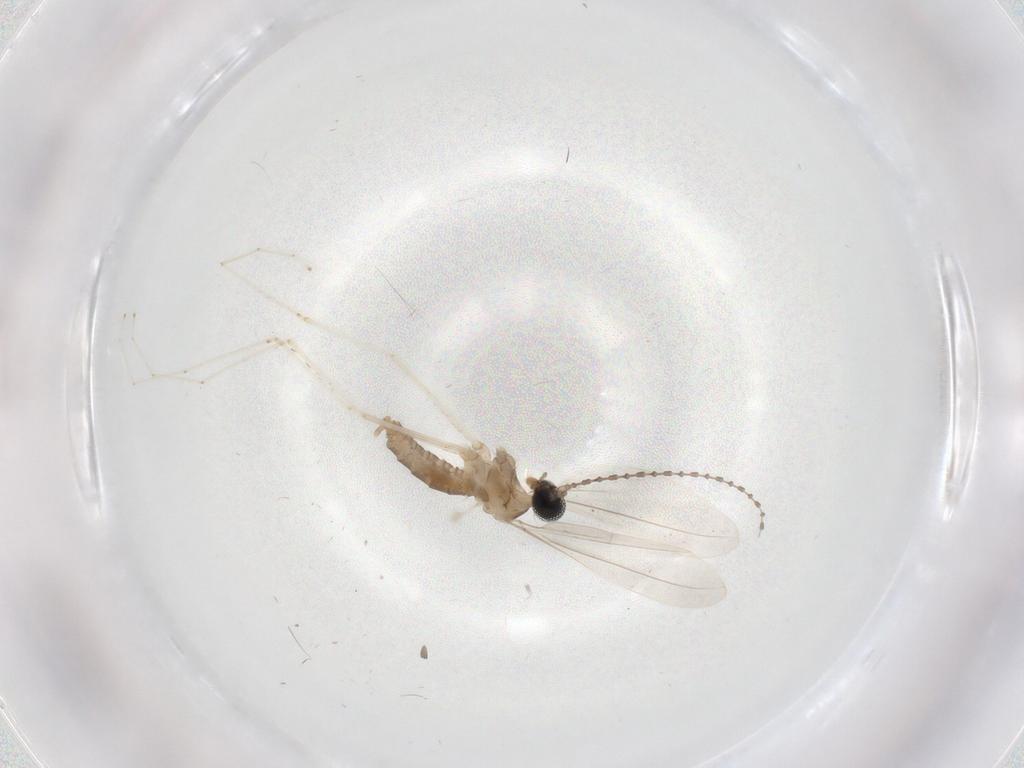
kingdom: Animalia
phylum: Arthropoda
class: Insecta
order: Diptera
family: Cecidomyiidae
